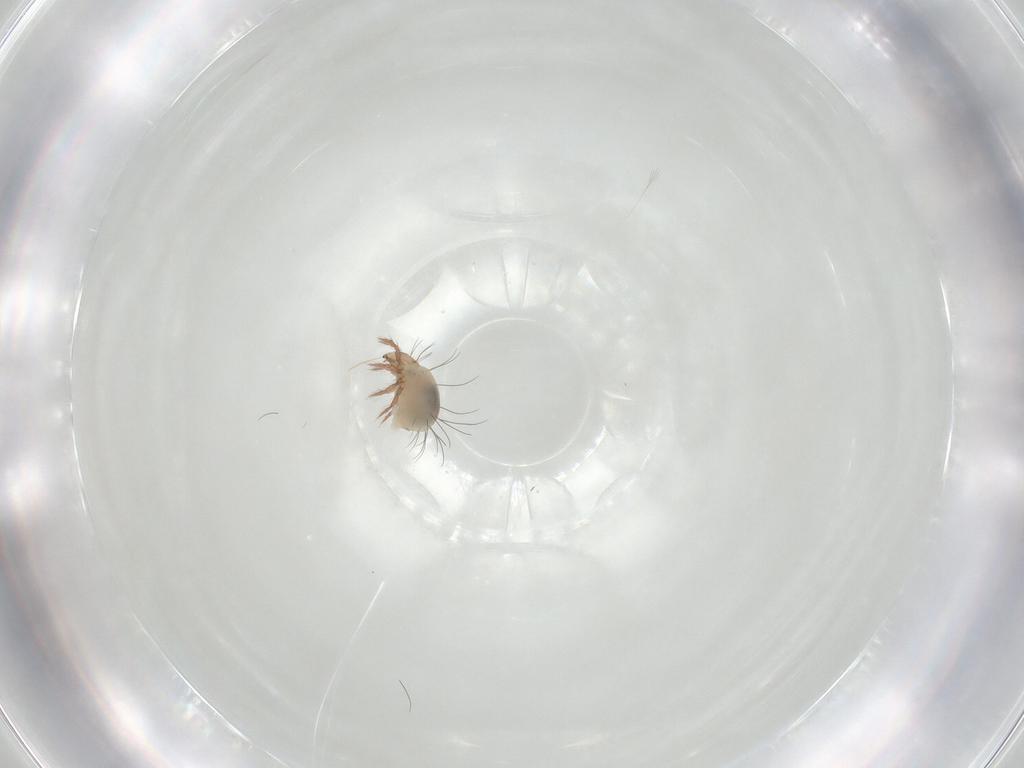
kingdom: Animalia
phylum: Arthropoda
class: Arachnida
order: Sarcoptiformes
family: Ceratozetidae
